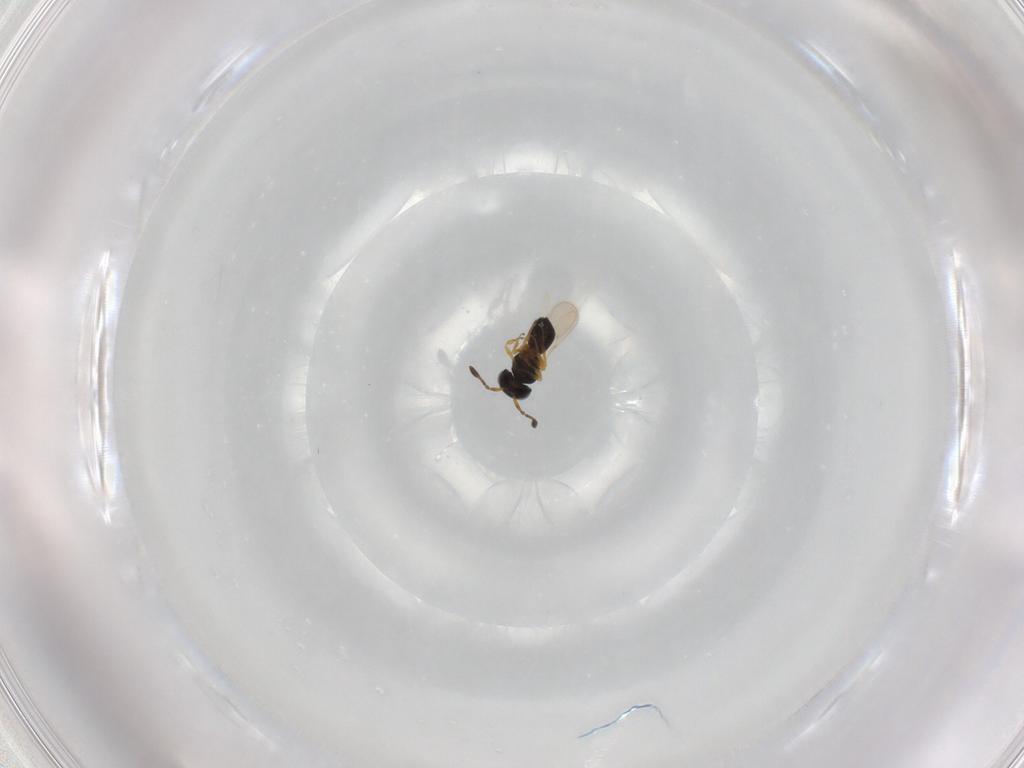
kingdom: Animalia
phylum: Arthropoda
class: Insecta
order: Hymenoptera
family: Scelionidae
